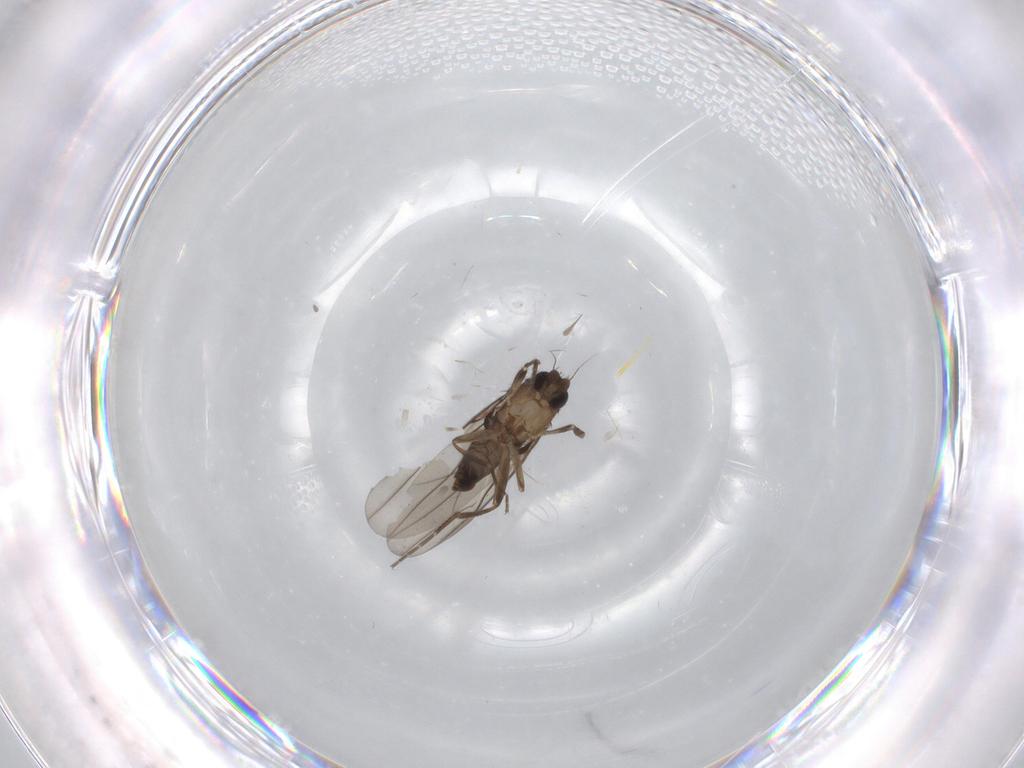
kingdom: Animalia
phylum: Arthropoda
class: Insecta
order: Diptera
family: Phoridae
